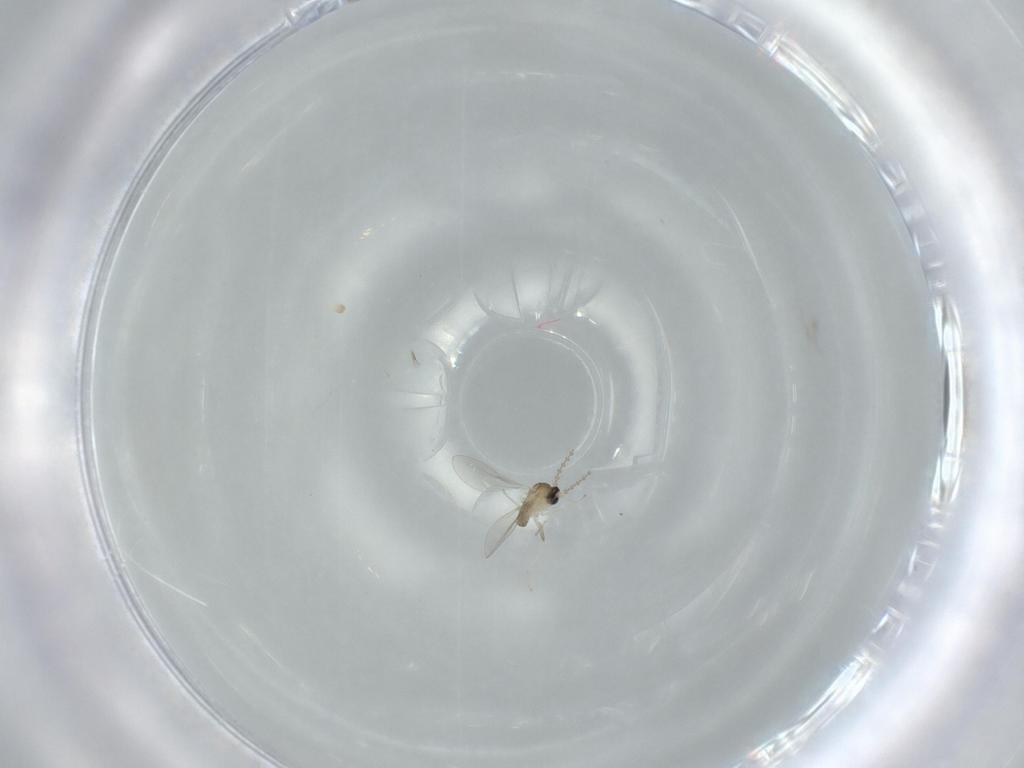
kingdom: Animalia
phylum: Arthropoda
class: Insecta
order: Diptera
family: Cecidomyiidae
